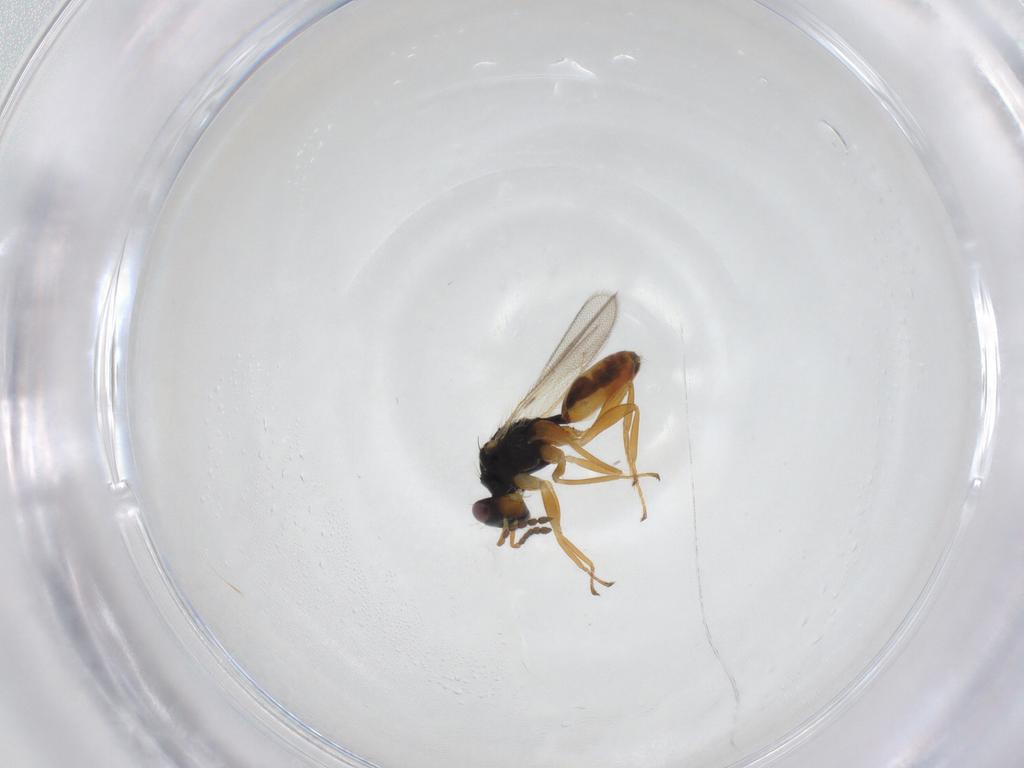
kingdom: Animalia
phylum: Arthropoda
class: Insecta
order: Hymenoptera
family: Eulophidae
